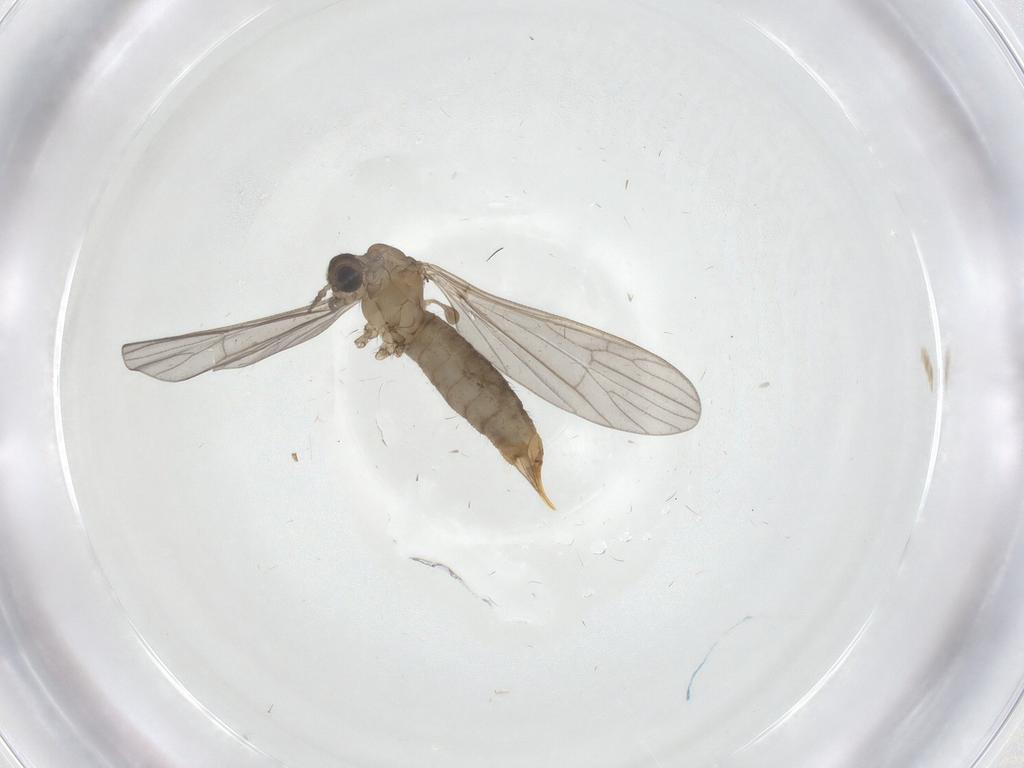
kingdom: Animalia
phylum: Arthropoda
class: Insecta
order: Diptera
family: Limoniidae
